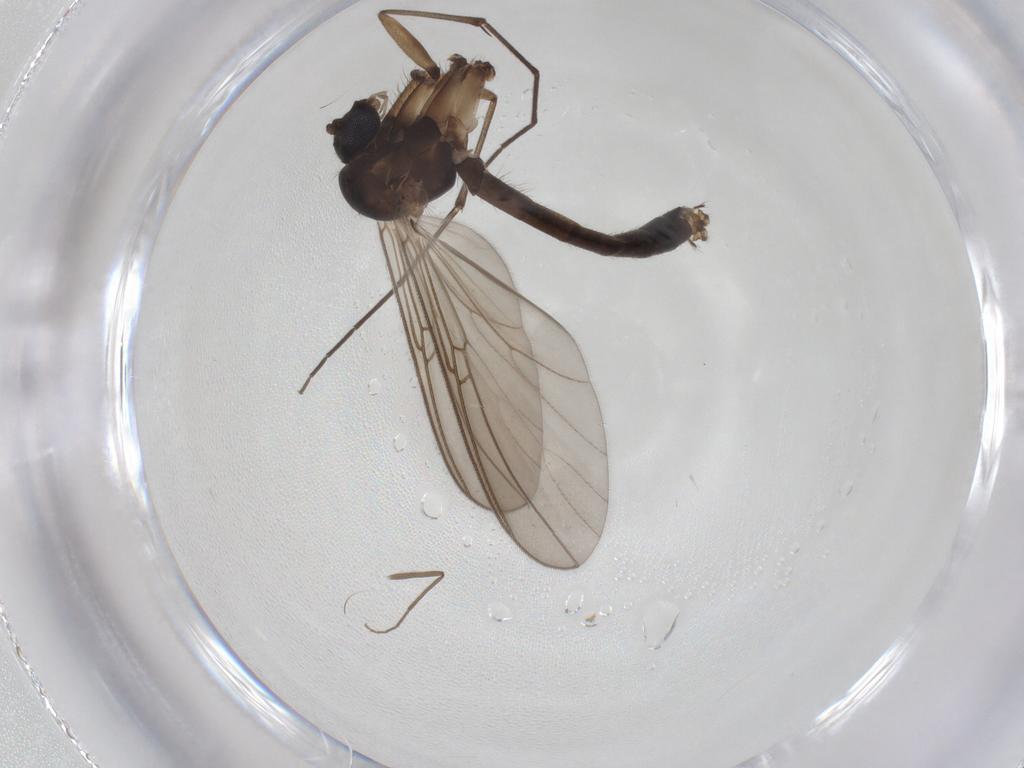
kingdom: Animalia
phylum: Arthropoda
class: Insecta
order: Diptera
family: Mycetophilidae
